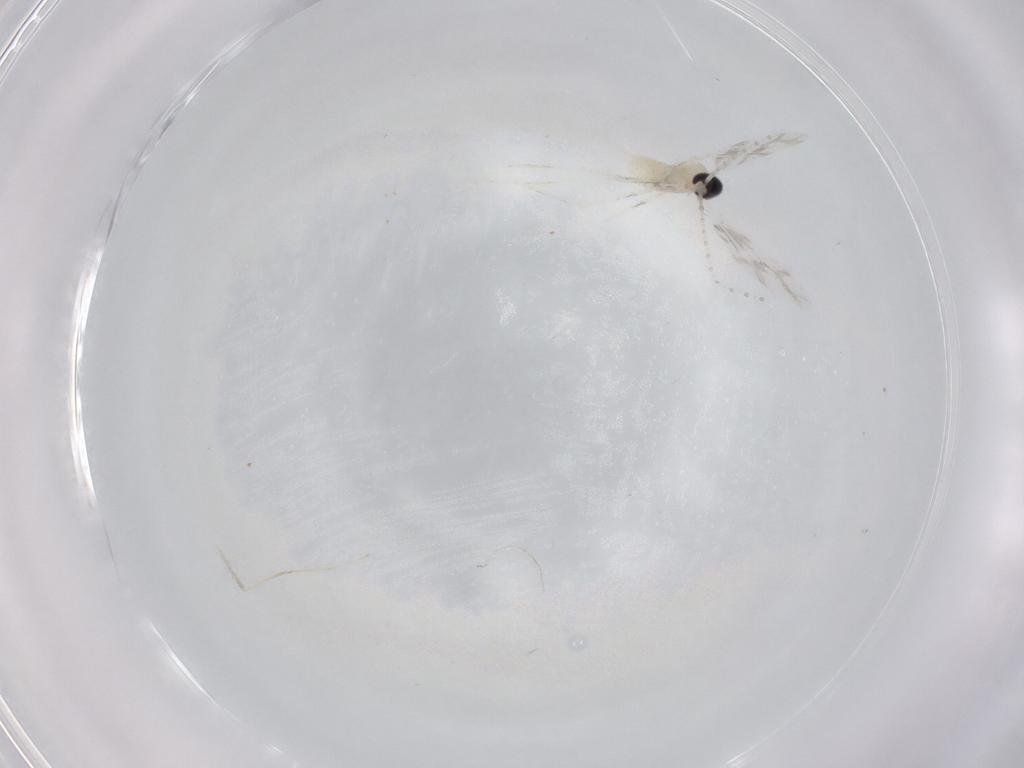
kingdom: Animalia
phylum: Arthropoda
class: Insecta
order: Diptera
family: Cecidomyiidae
